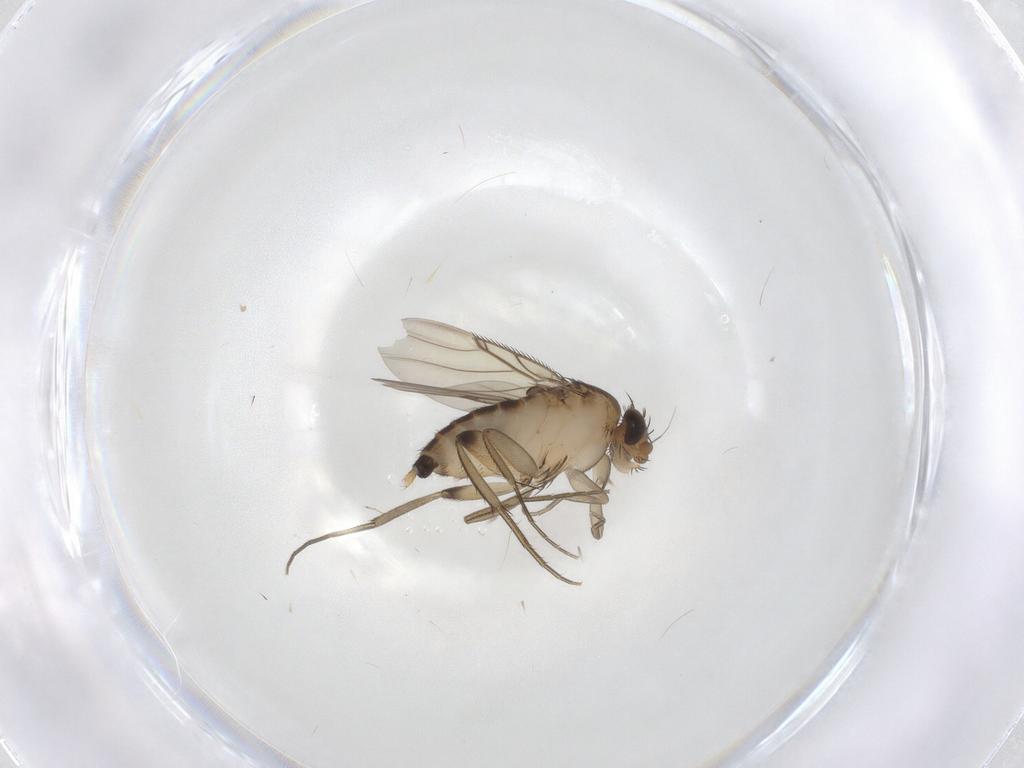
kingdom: Animalia
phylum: Arthropoda
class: Insecta
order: Diptera
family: Phoridae
